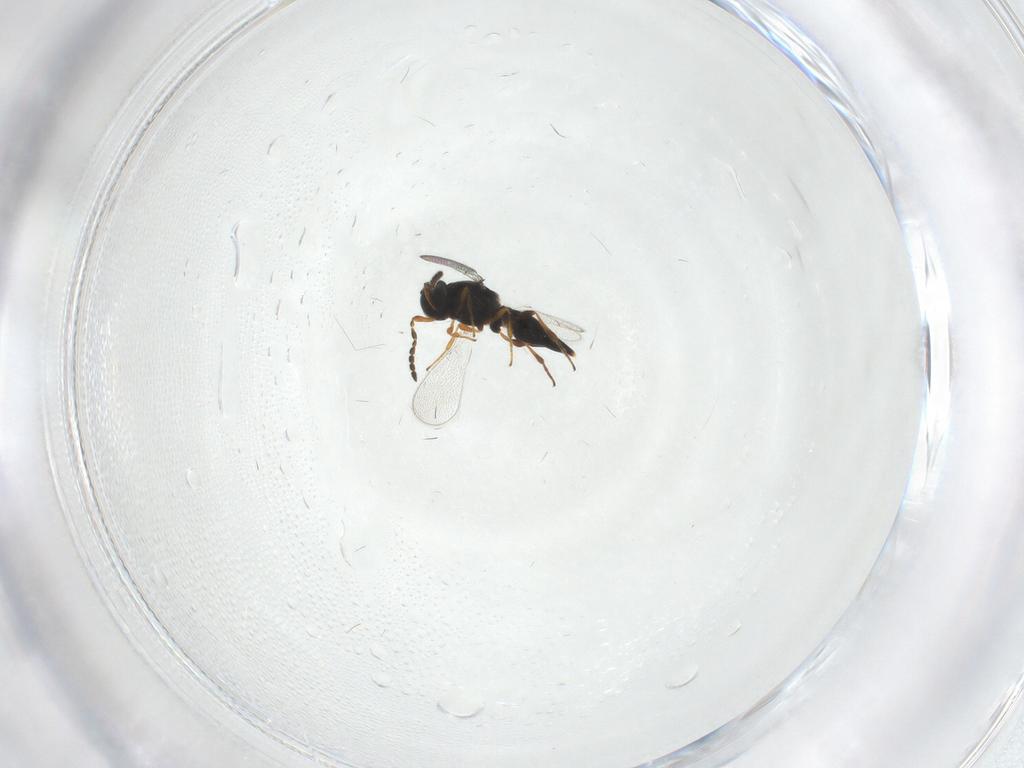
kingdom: Animalia
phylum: Arthropoda
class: Insecta
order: Hymenoptera
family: Platygastridae
